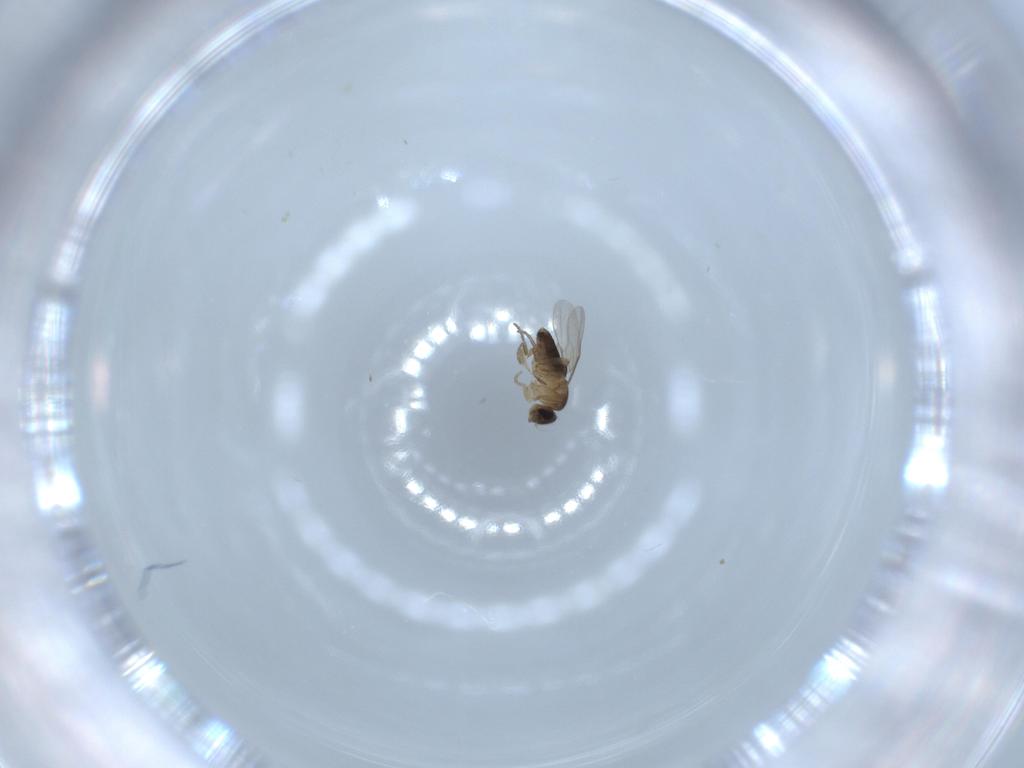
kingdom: Animalia
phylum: Arthropoda
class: Insecta
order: Diptera
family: Phoridae
